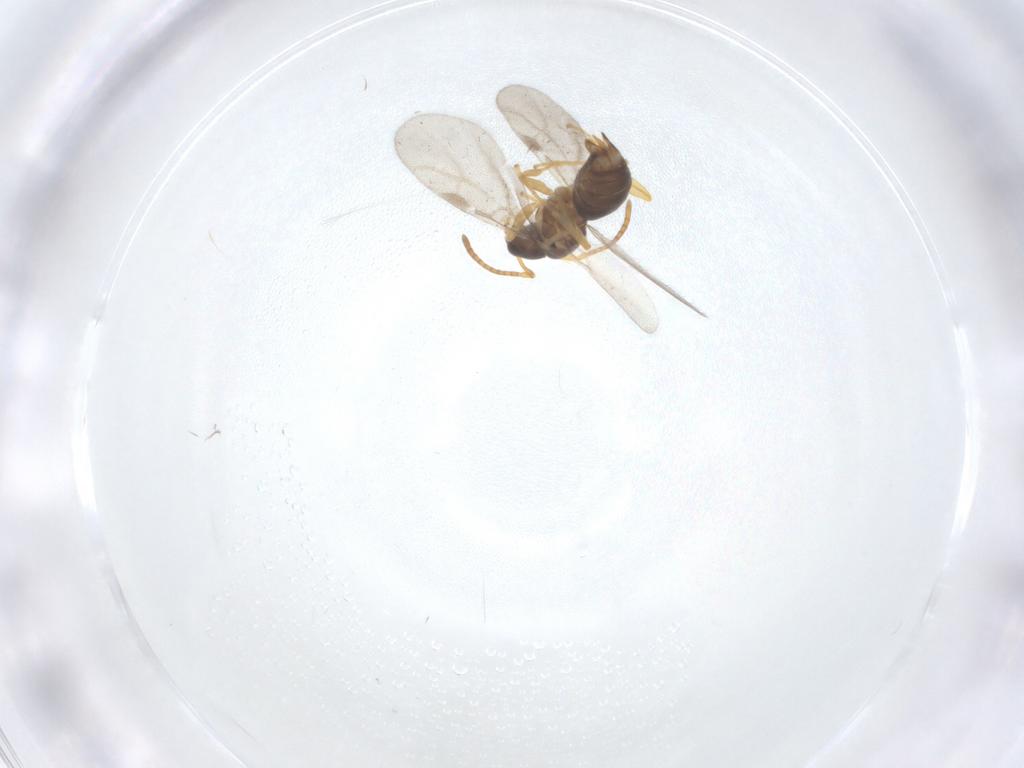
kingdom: Animalia
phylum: Arthropoda
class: Insecta
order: Hymenoptera
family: Formicidae
